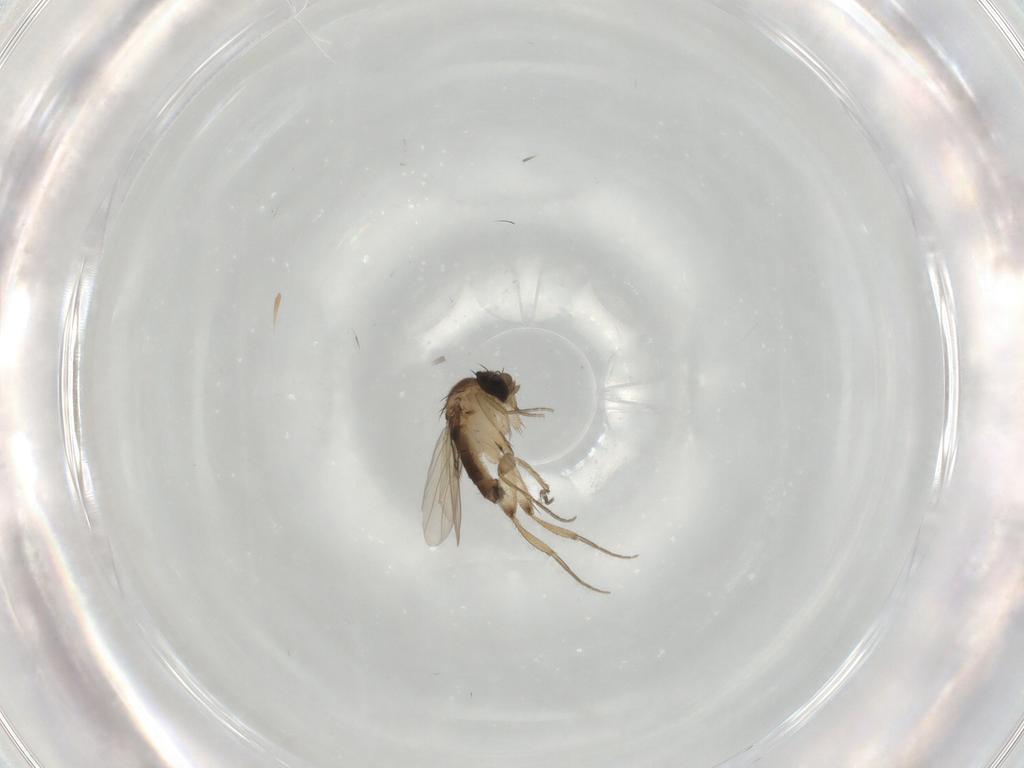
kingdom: Animalia
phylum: Arthropoda
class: Insecta
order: Diptera
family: Phoridae
